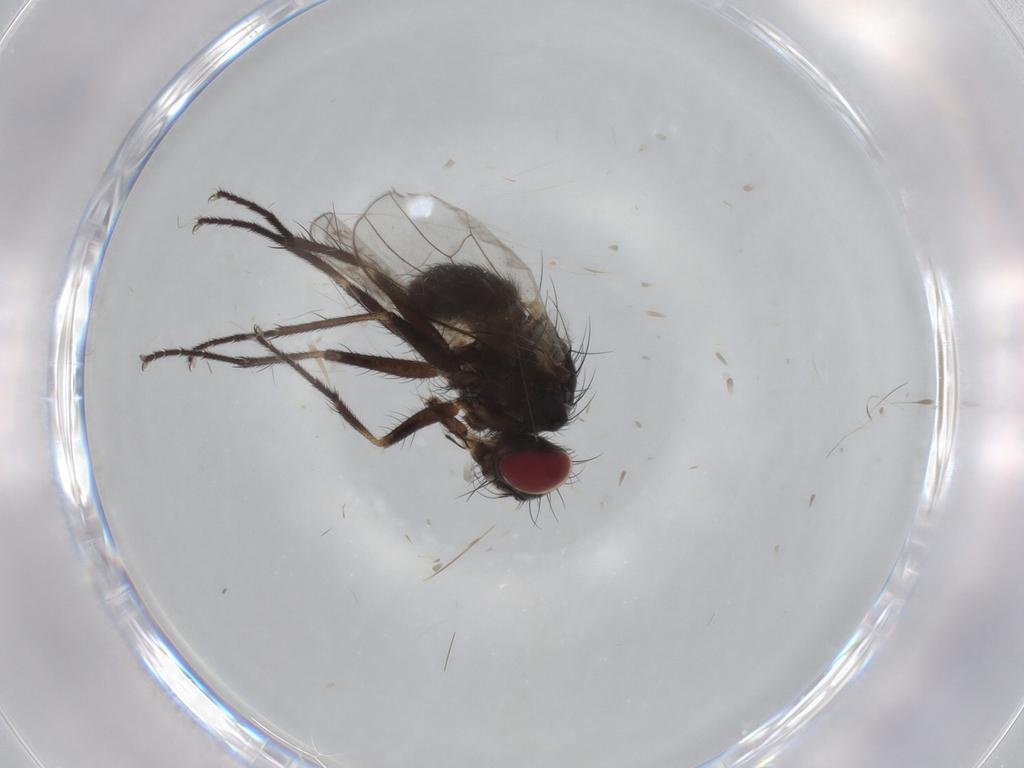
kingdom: Animalia
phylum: Arthropoda
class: Insecta
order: Diptera
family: Muscidae
